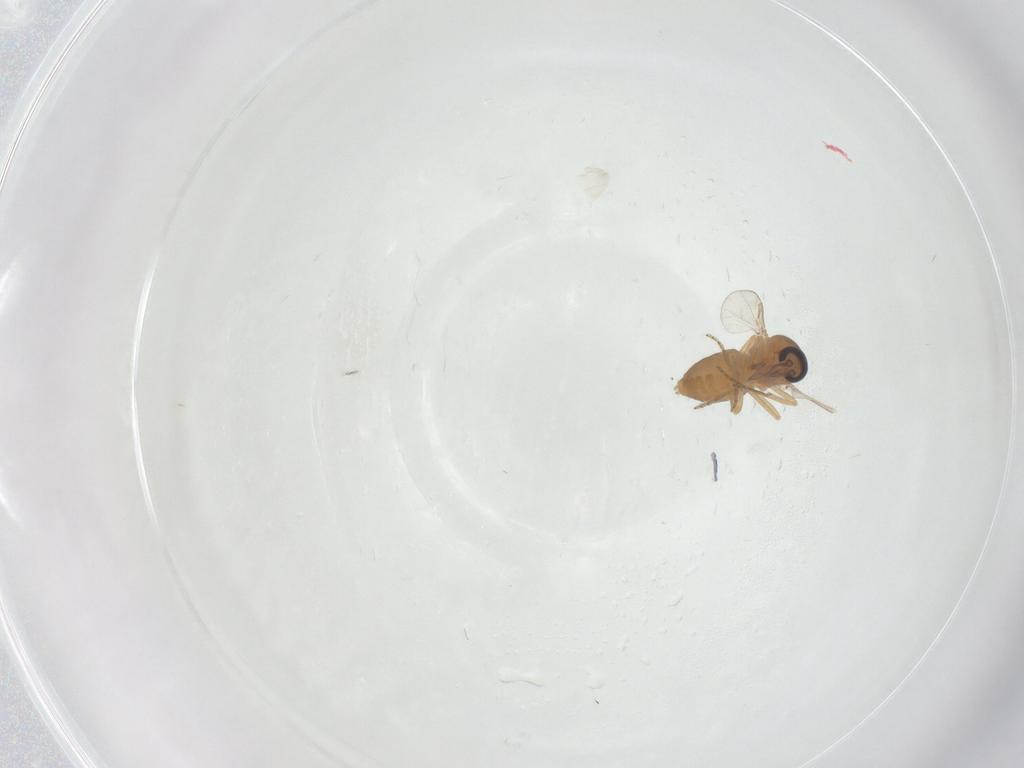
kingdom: Animalia
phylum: Arthropoda
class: Insecta
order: Diptera
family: Ceratopogonidae
